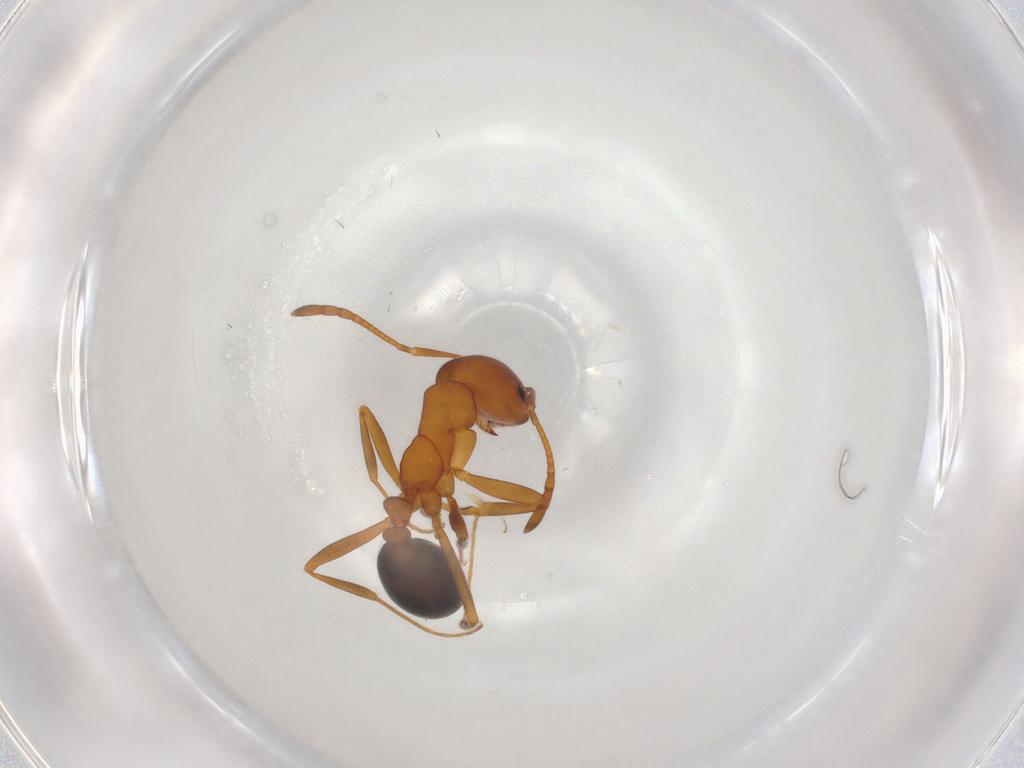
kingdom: Animalia
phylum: Arthropoda
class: Insecta
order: Hymenoptera
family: Formicidae
